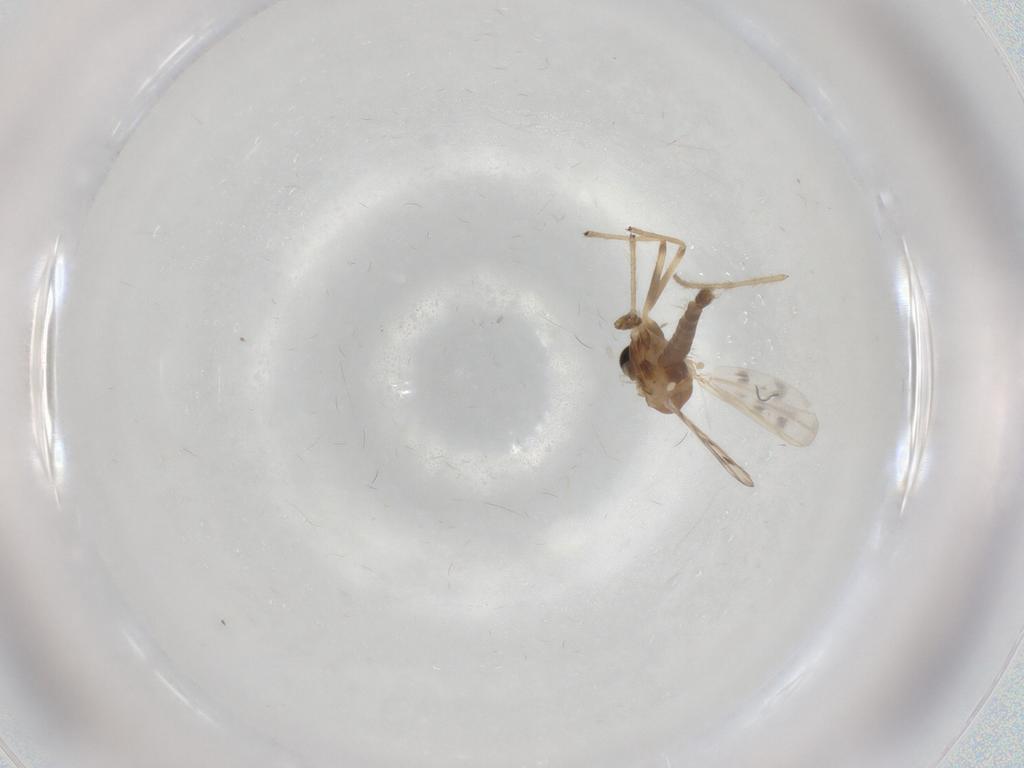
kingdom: Animalia
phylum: Arthropoda
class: Insecta
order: Diptera
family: Chironomidae
